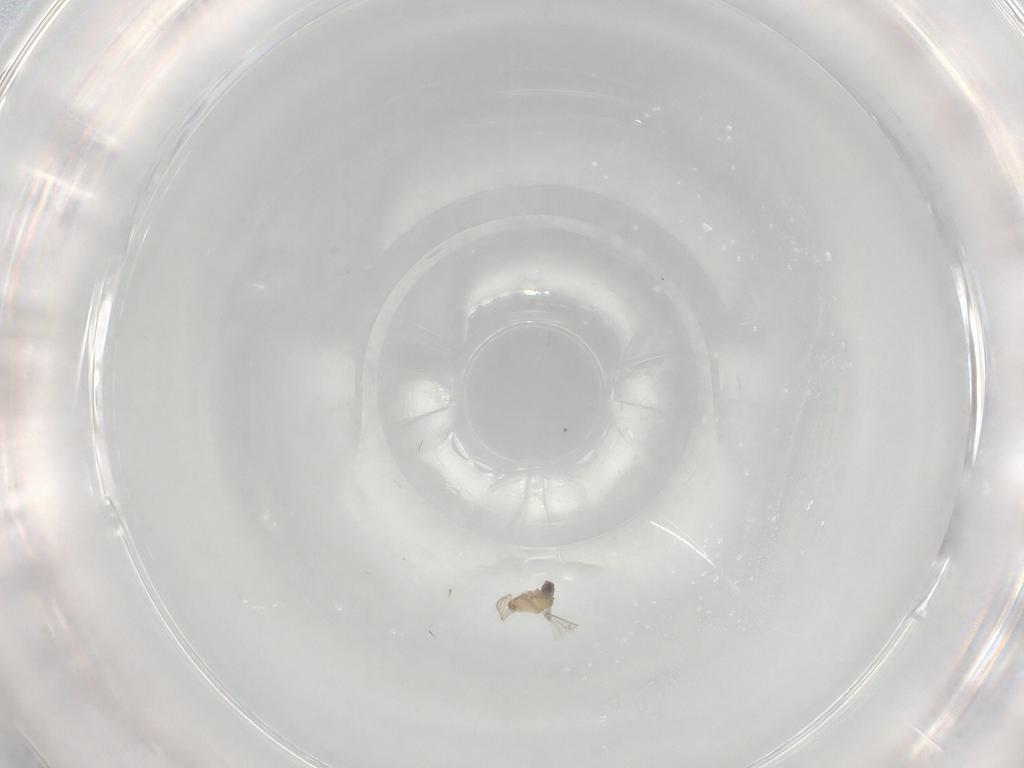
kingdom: Animalia
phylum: Arthropoda
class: Insecta
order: Diptera
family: Cecidomyiidae
